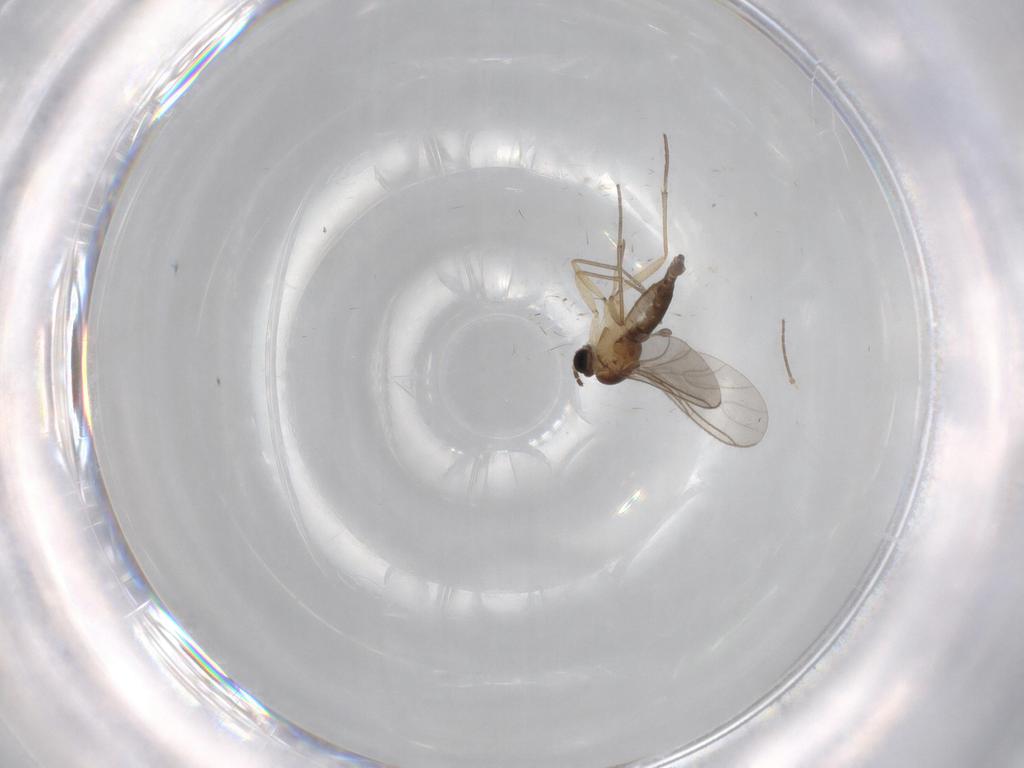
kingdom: Animalia
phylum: Arthropoda
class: Insecta
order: Diptera
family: Sciaridae
